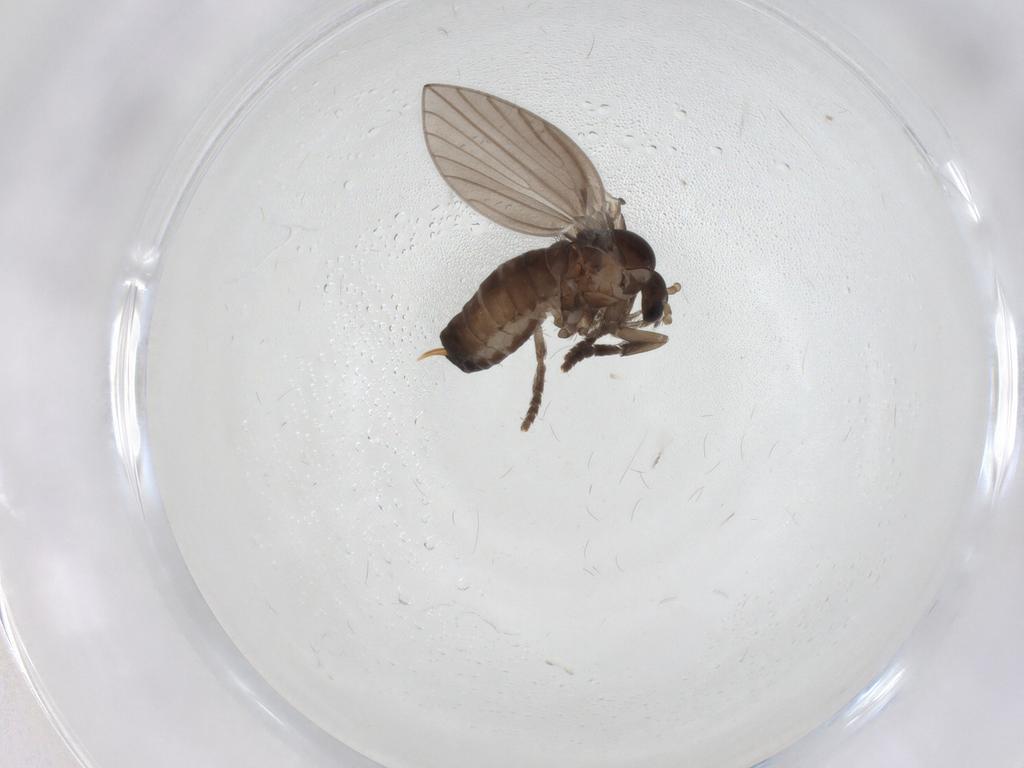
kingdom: Animalia
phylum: Arthropoda
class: Insecta
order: Diptera
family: Psychodidae
